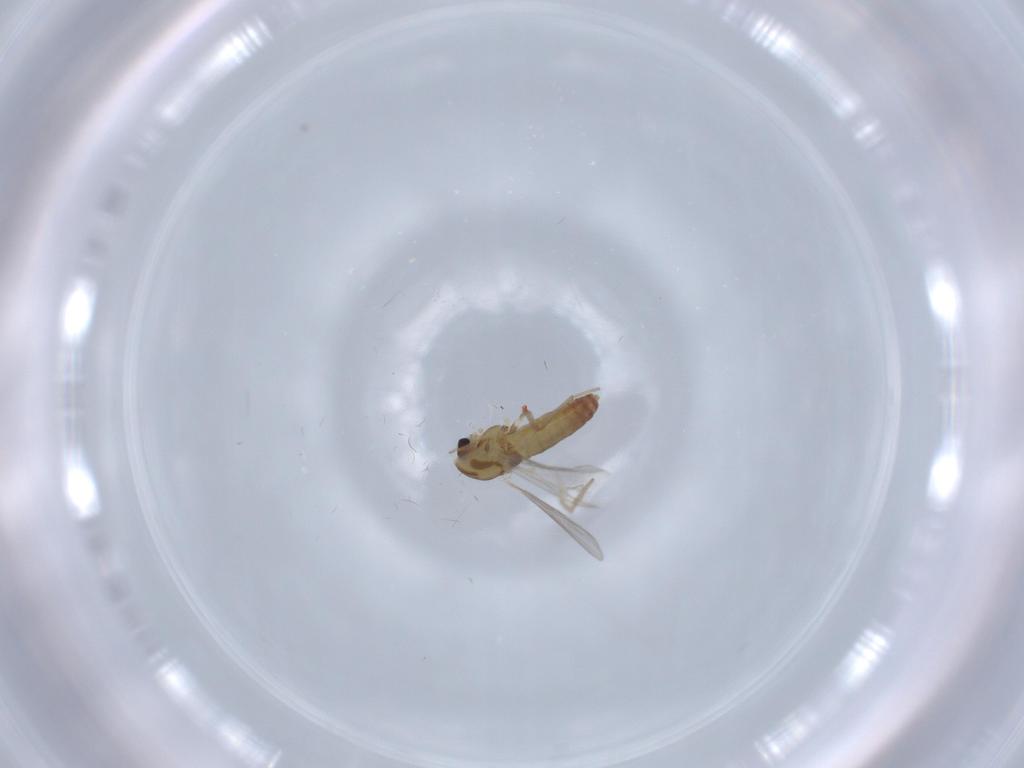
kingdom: Animalia
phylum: Arthropoda
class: Insecta
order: Diptera
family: Chironomidae
